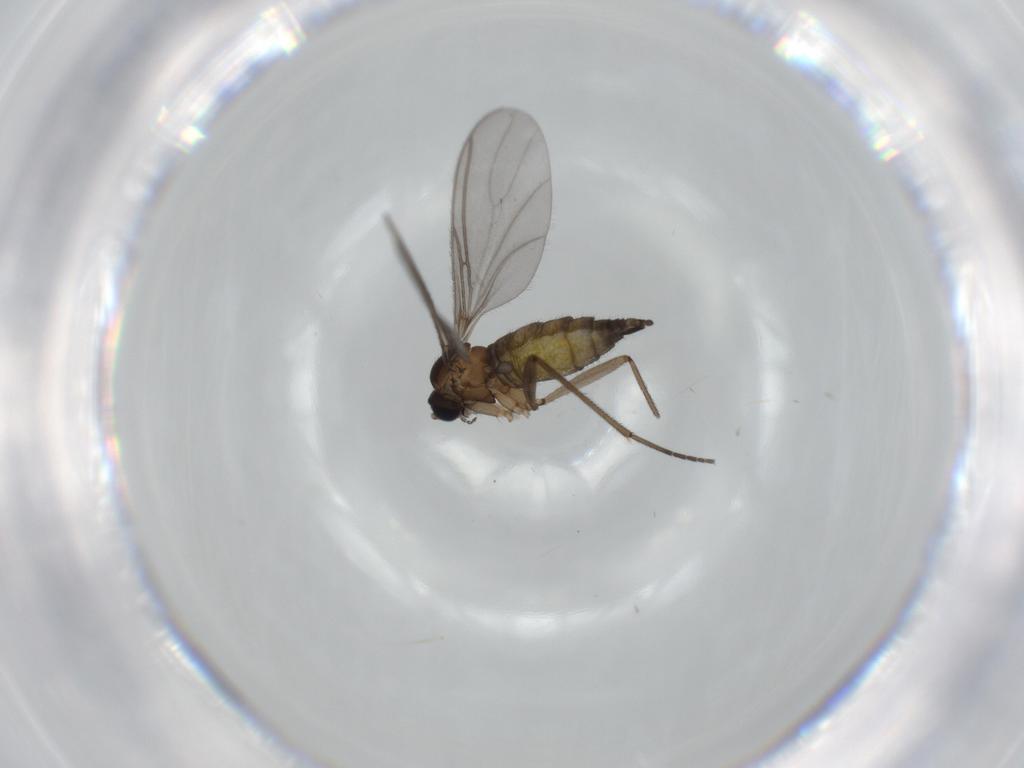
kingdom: Animalia
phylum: Arthropoda
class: Insecta
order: Diptera
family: Sciaridae
